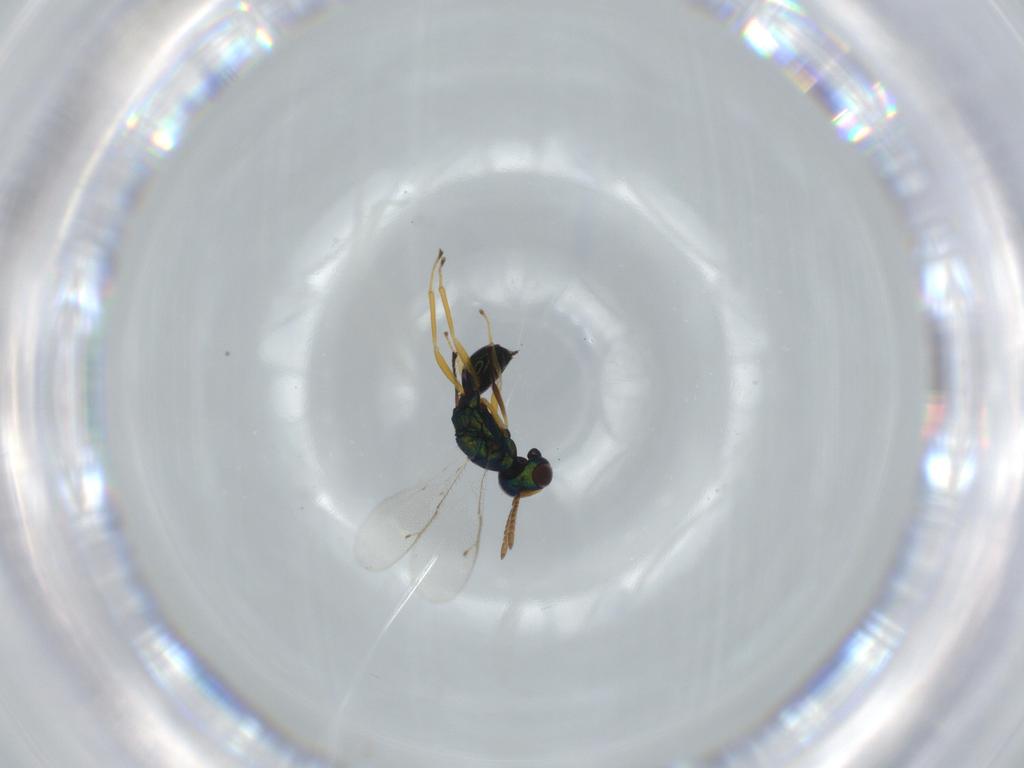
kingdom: Animalia
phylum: Arthropoda
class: Insecta
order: Hymenoptera
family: Pteromalidae
